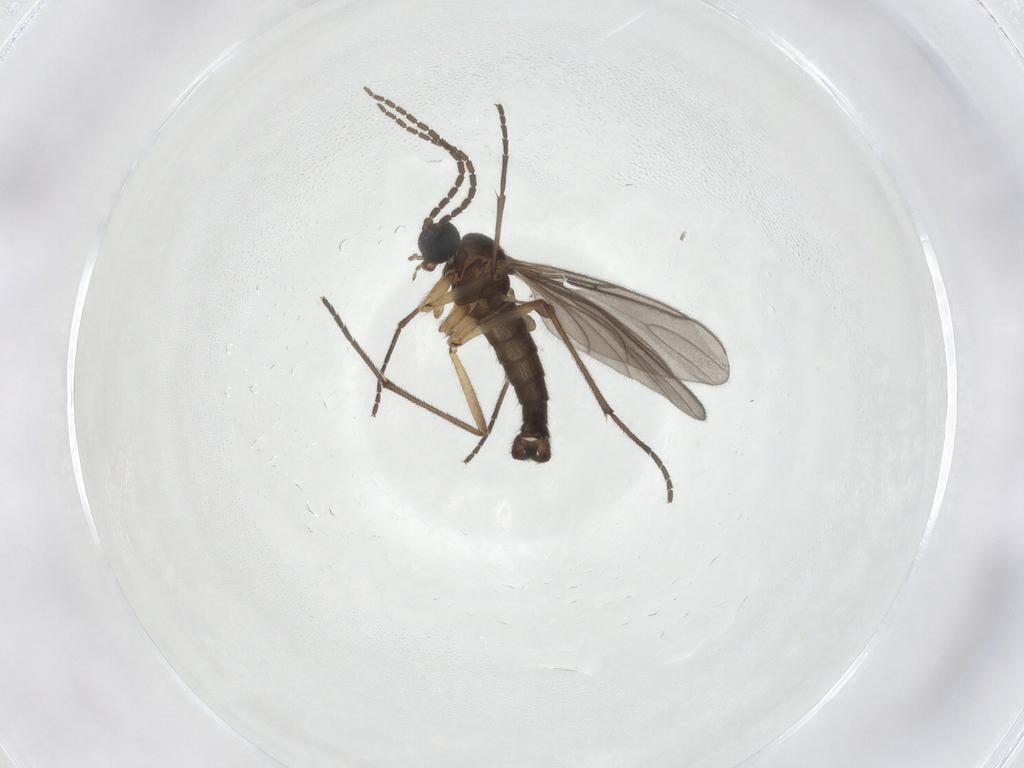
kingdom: Animalia
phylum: Arthropoda
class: Insecta
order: Diptera
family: Sciaridae
